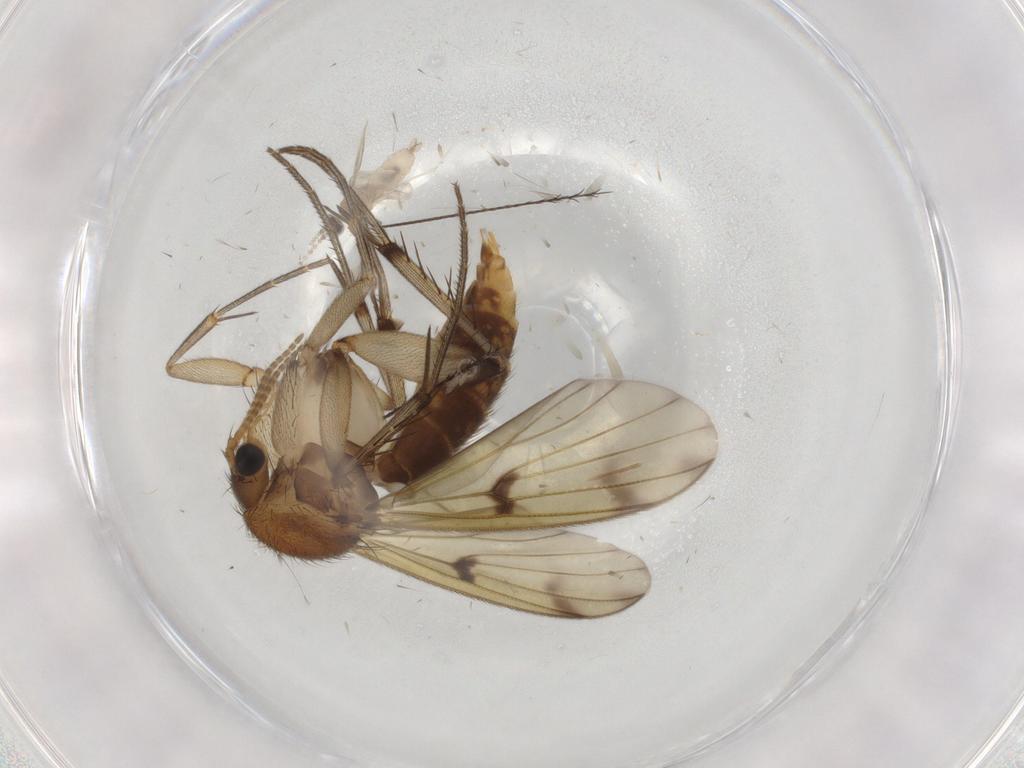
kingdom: Animalia
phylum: Arthropoda
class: Insecta
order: Diptera
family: Mycetophilidae
